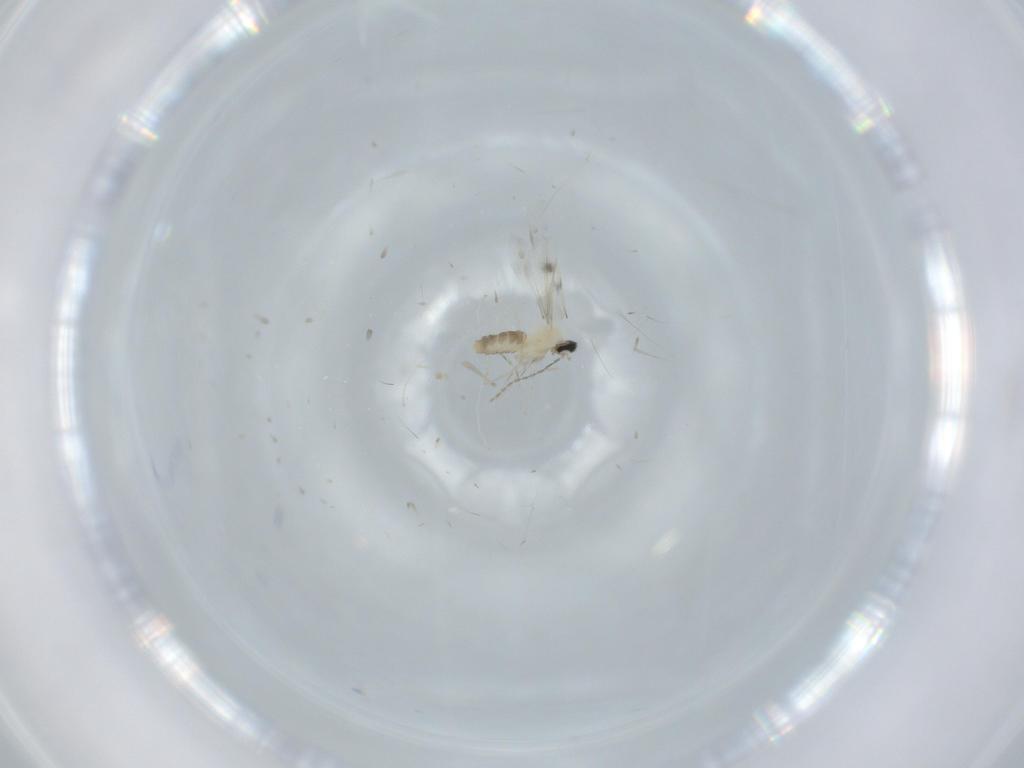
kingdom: Animalia
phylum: Arthropoda
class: Insecta
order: Diptera
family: Cecidomyiidae
